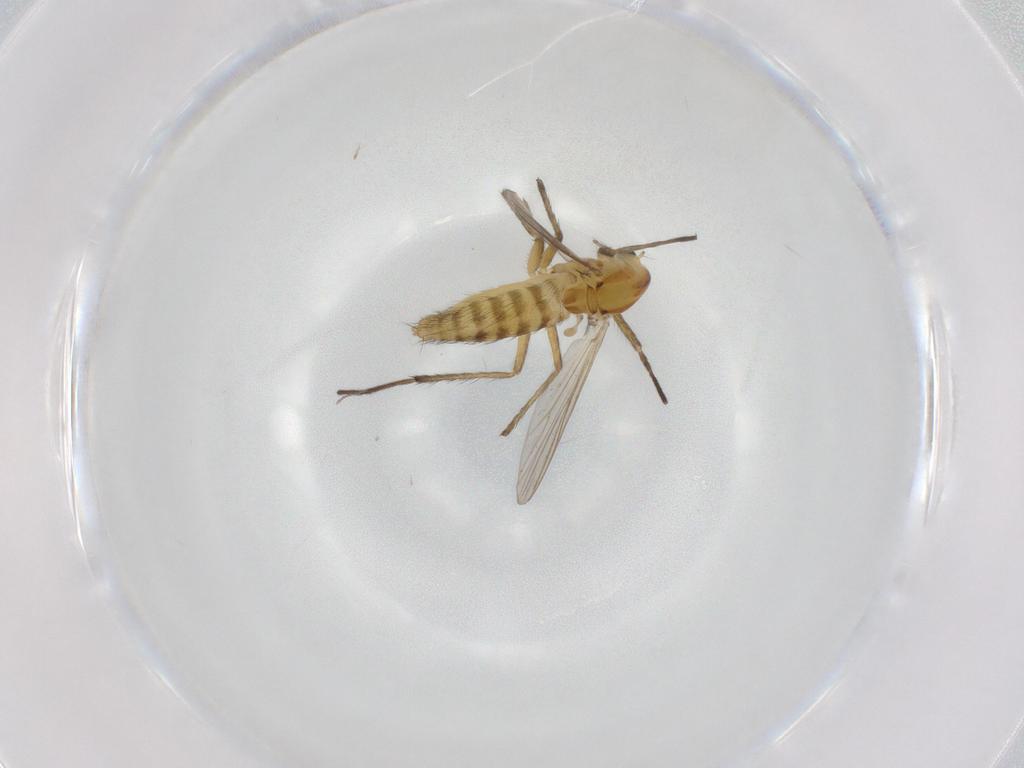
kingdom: Animalia
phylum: Arthropoda
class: Insecta
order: Diptera
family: Chironomidae
